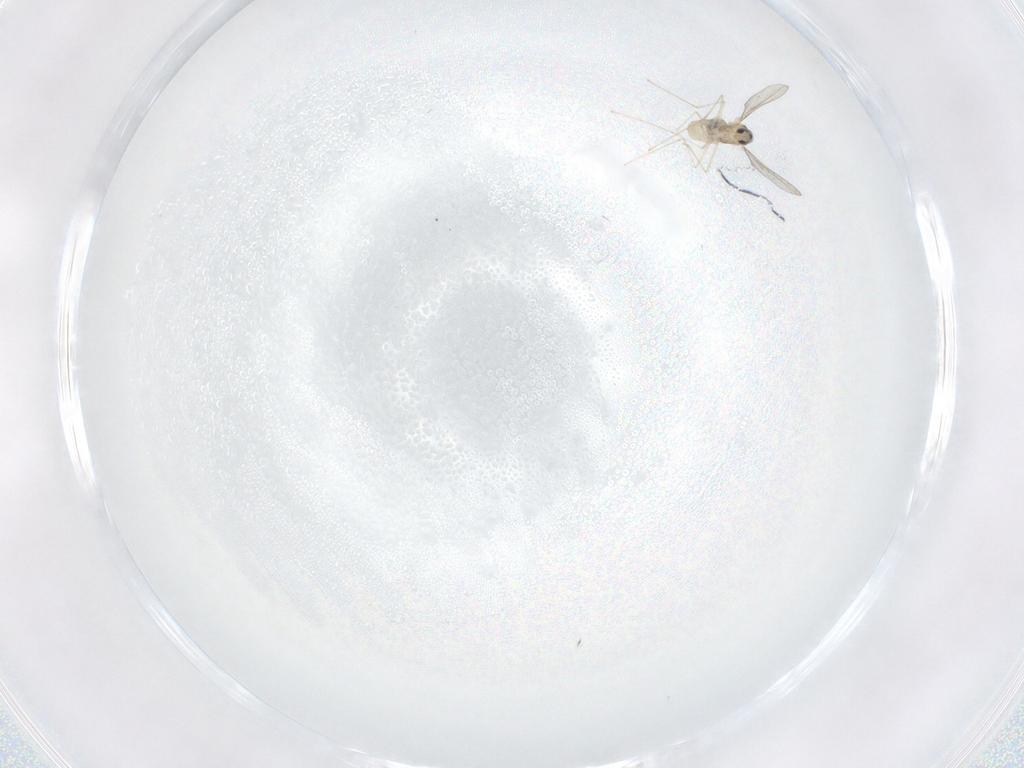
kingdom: Animalia
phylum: Arthropoda
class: Insecta
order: Diptera
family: Cecidomyiidae
